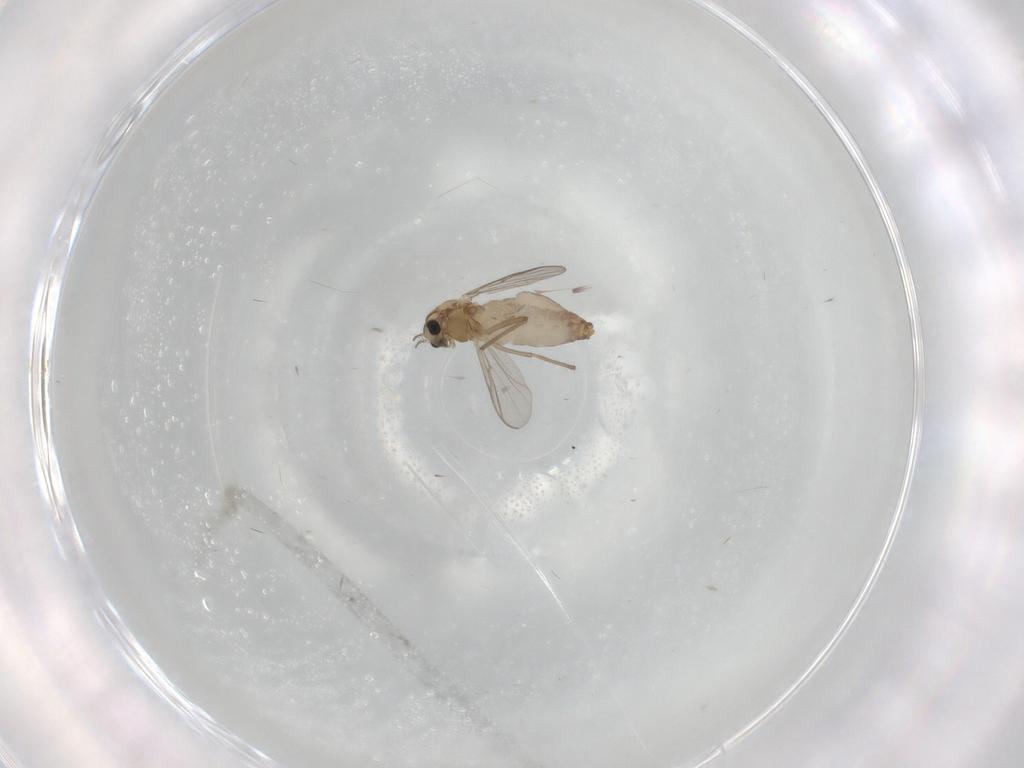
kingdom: Animalia
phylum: Arthropoda
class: Insecta
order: Diptera
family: Chironomidae
